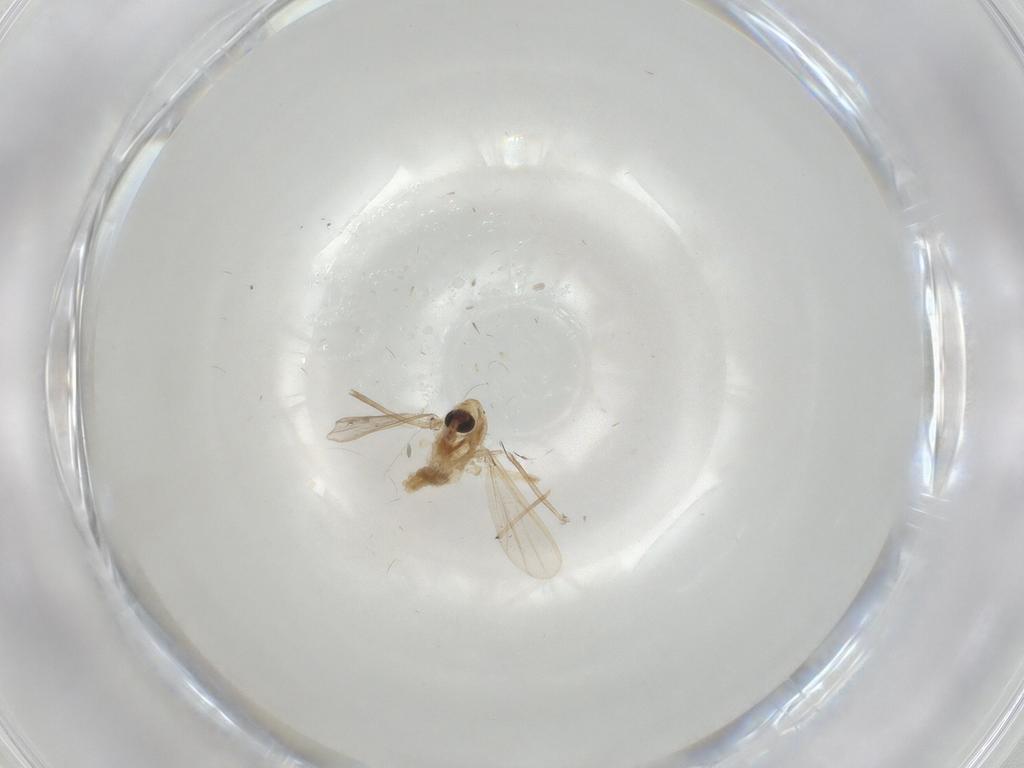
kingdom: Animalia
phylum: Arthropoda
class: Insecta
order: Diptera
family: Chironomidae
